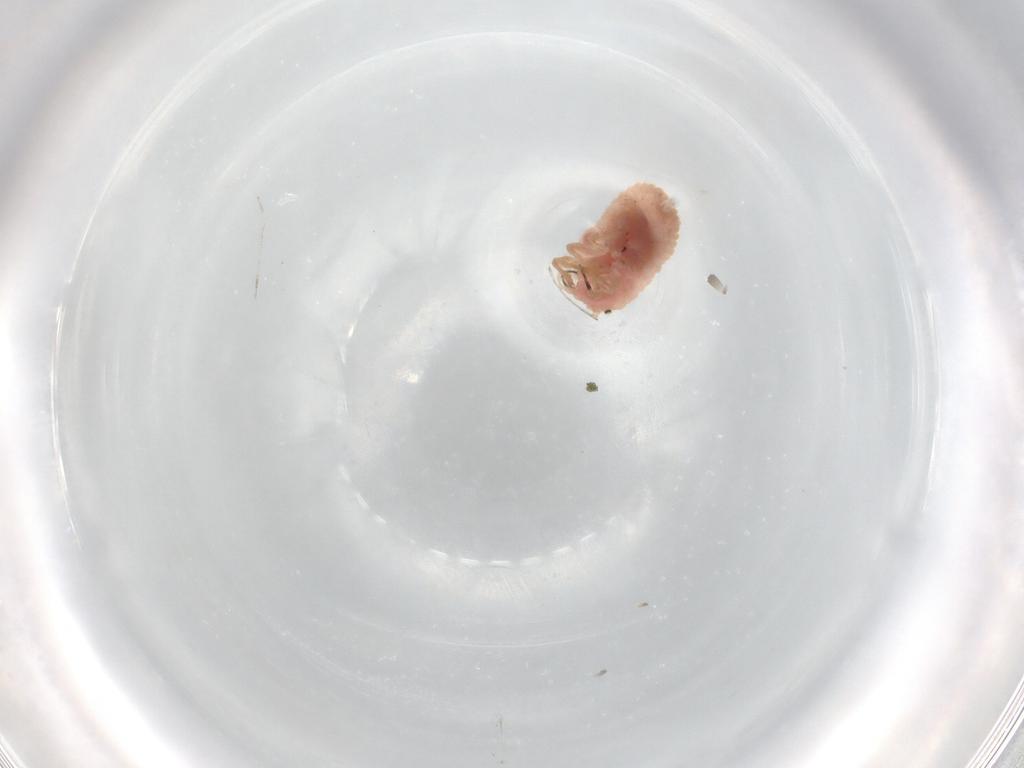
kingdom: Animalia
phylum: Arthropoda
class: Insecta
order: Hemiptera
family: Coccoidea_incertae_sedis
